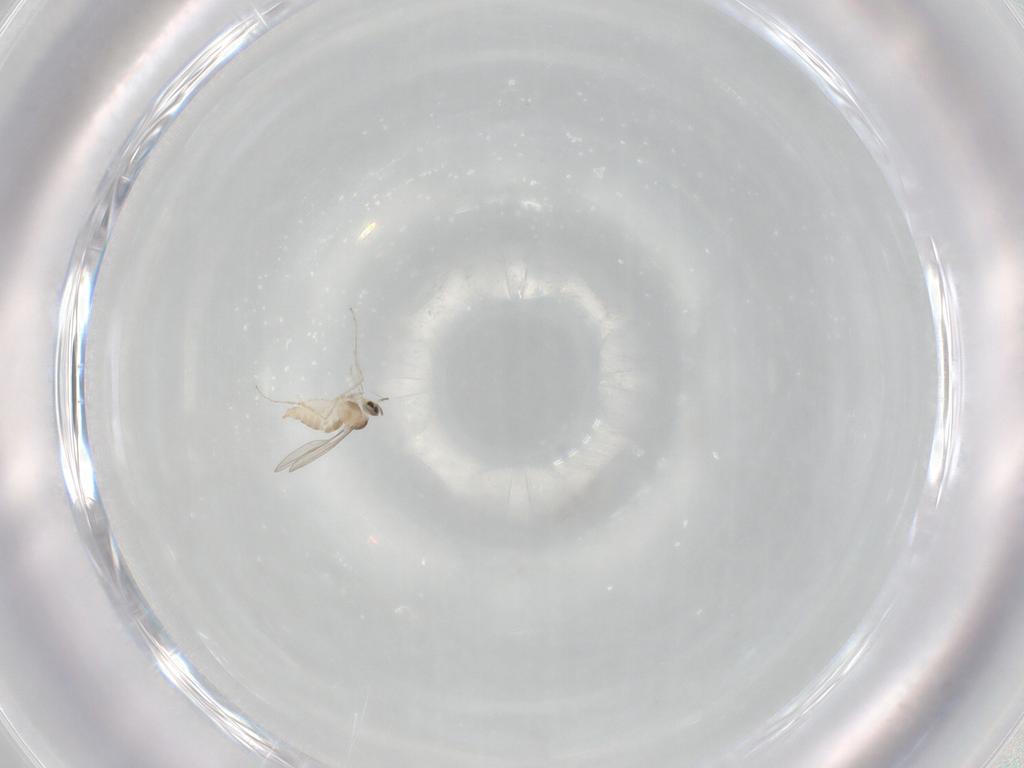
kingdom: Animalia
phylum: Arthropoda
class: Insecta
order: Diptera
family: Cecidomyiidae
